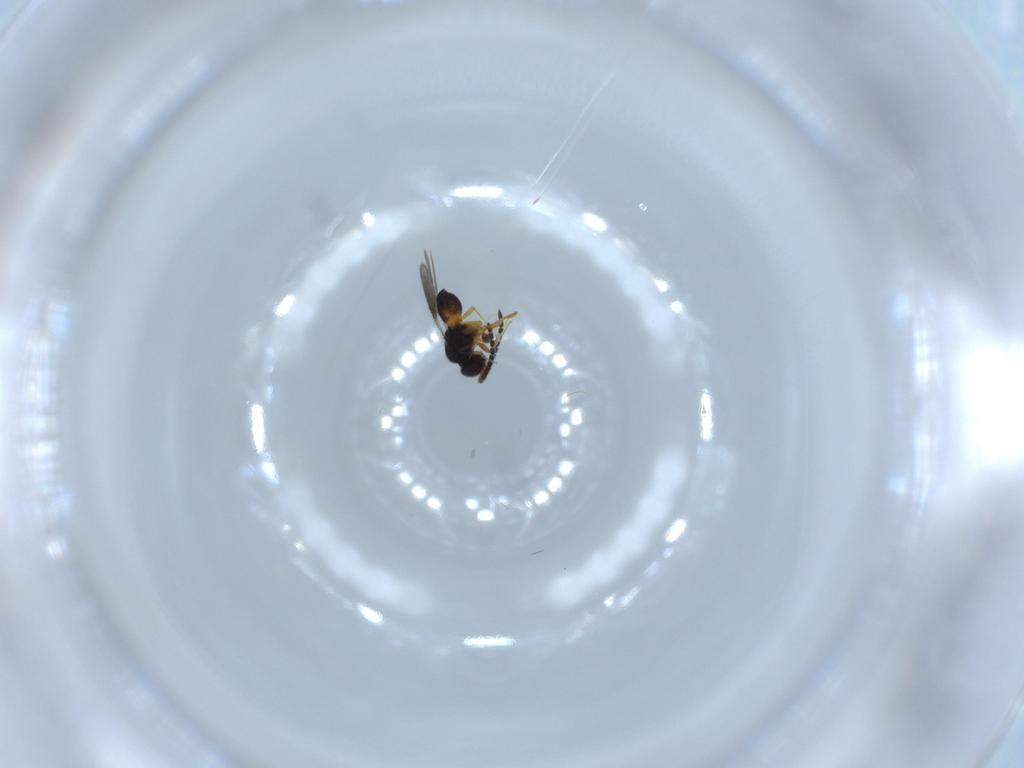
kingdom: Animalia
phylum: Arthropoda
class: Insecta
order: Hymenoptera
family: Formicidae
